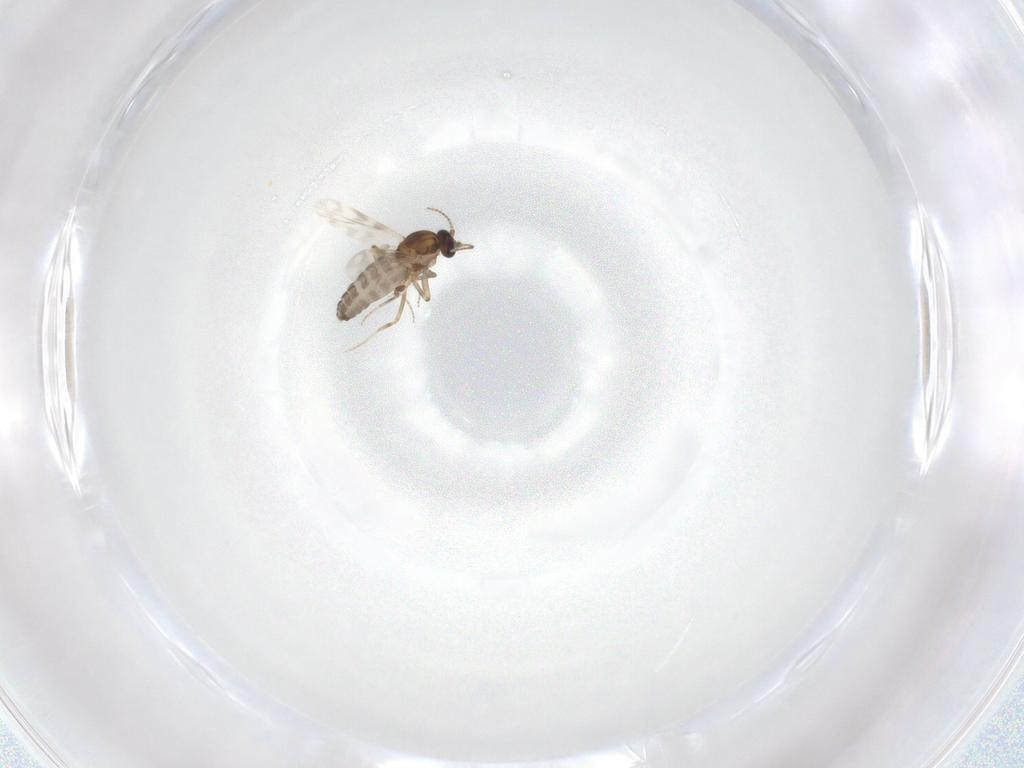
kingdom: Animalia
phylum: Arthropoda
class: Insecta
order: Diptera
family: Ceratopogonidae
